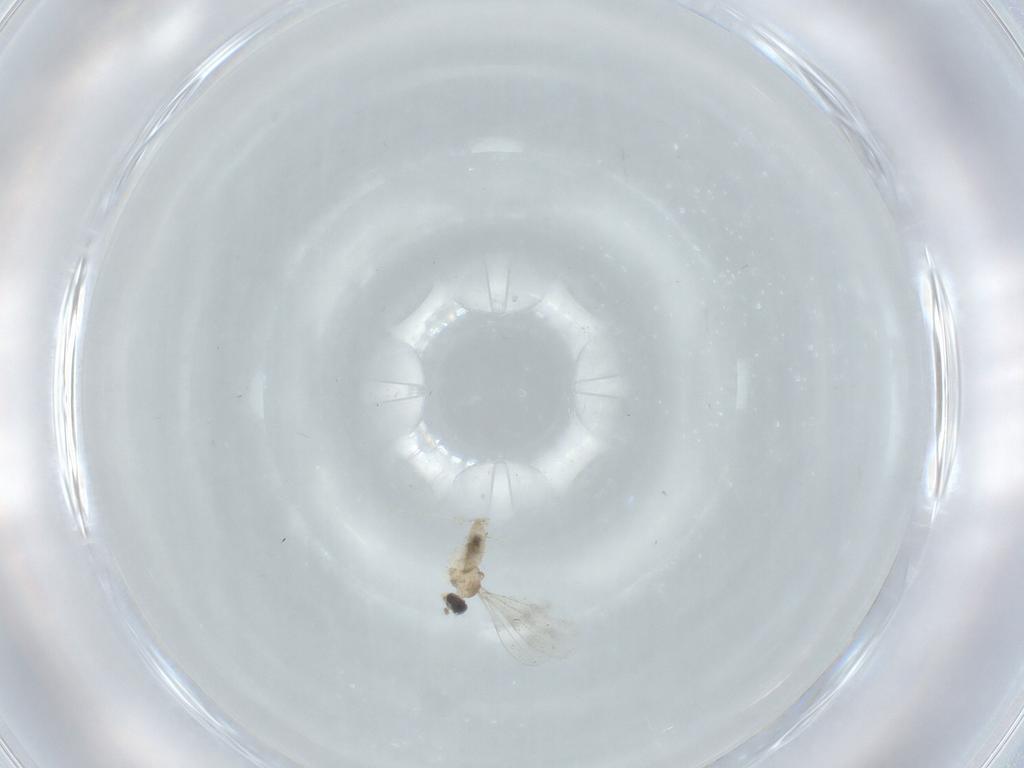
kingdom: Animalia
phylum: Arthropoda
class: Insecta
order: Diptera
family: Cecidomyiidae
